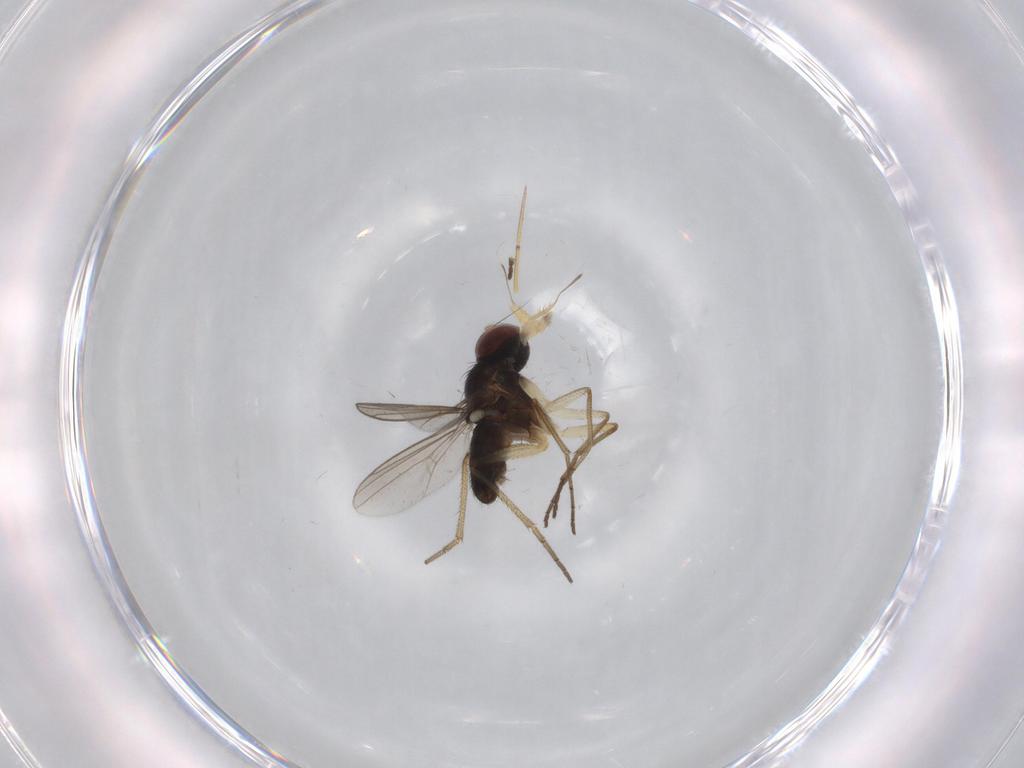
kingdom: Animalia
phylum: Arthropoda
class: Insecta
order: Diptera
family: Dolichopodidae
